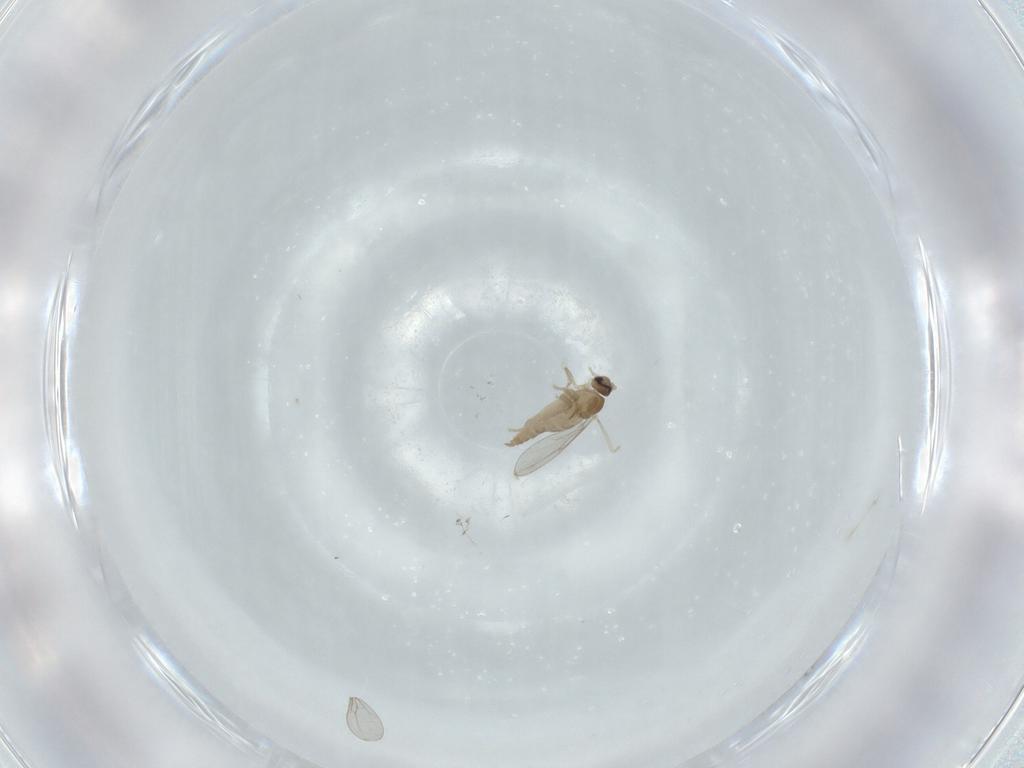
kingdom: Animalia
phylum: Arthropoda
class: Insecta
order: Diptera
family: Cecidomyiidae
